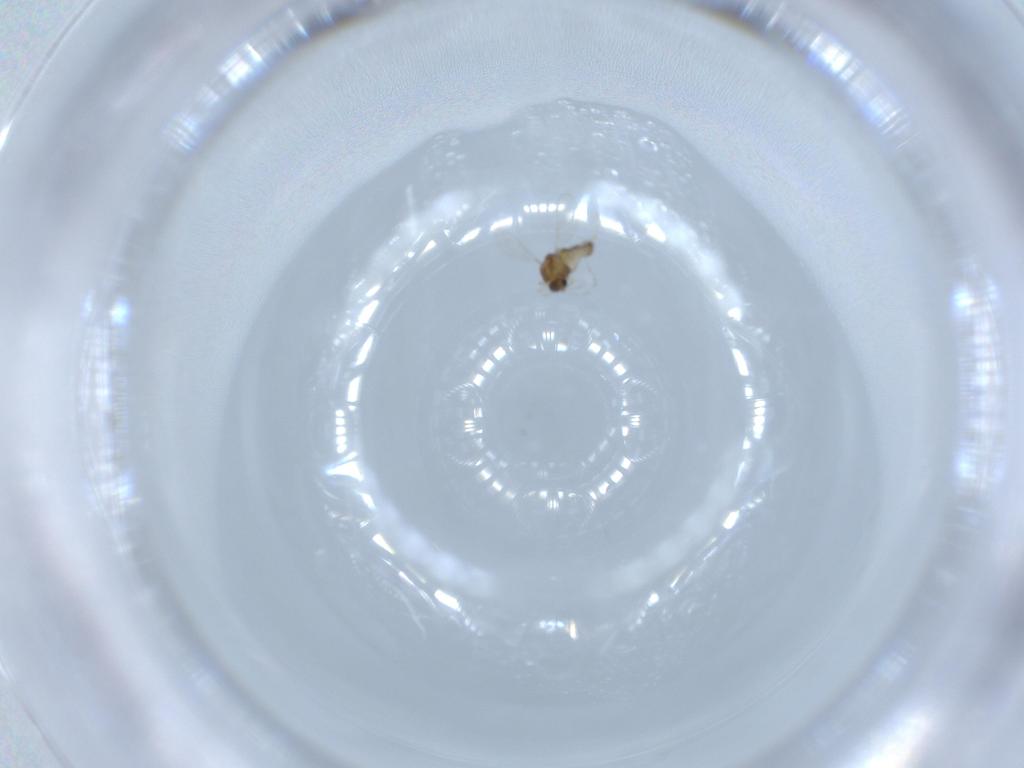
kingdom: Animalia
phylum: Arthropoda
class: Insecta
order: Diptera
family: Chironomidae
